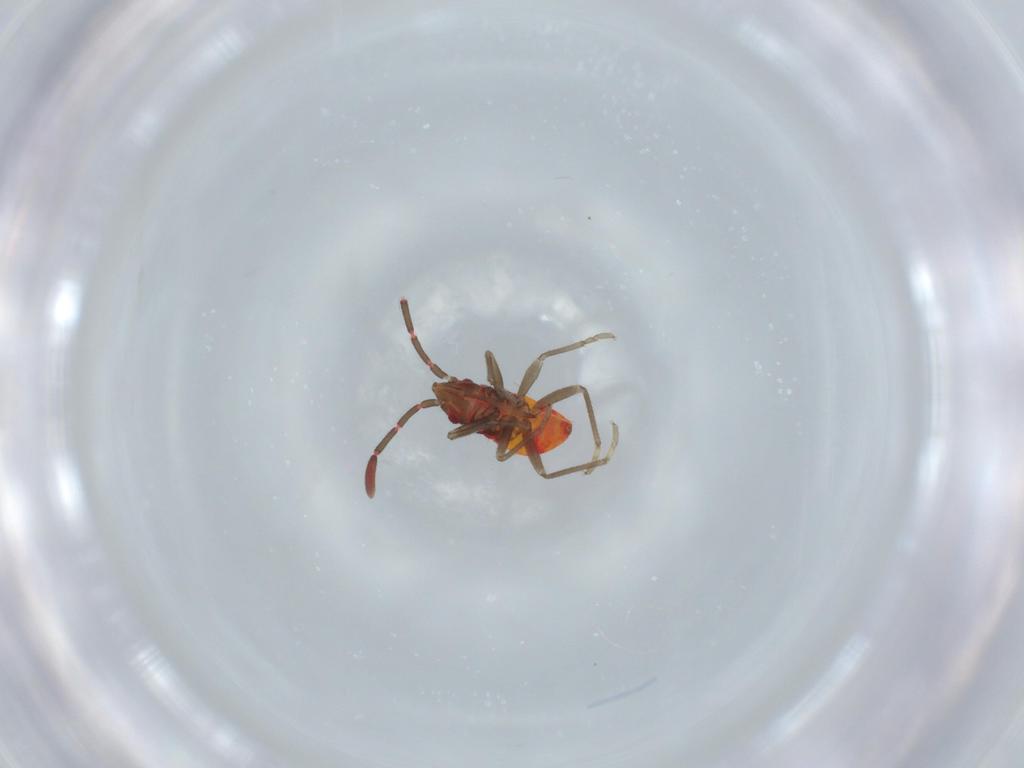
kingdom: Animalia
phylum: Arthropoda
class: Insecta
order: Hemiptera
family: Rhyparochromidae
